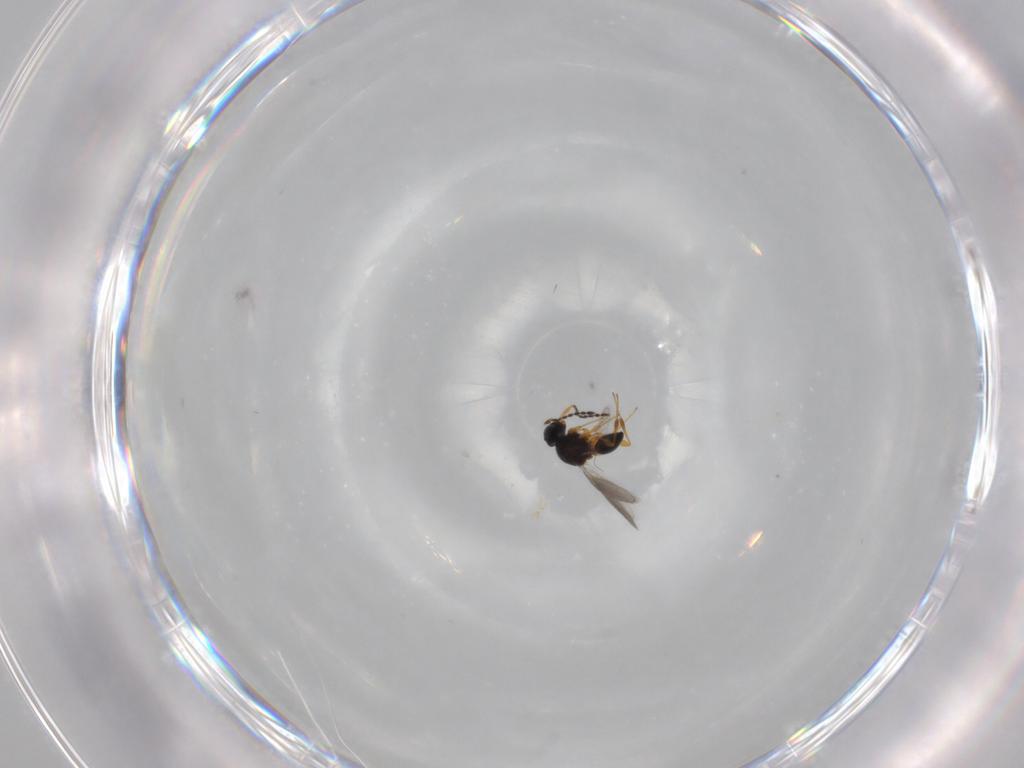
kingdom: Animalia
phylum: Arthropoda
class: Insecta
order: Hymenoptera
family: Platygastridae
